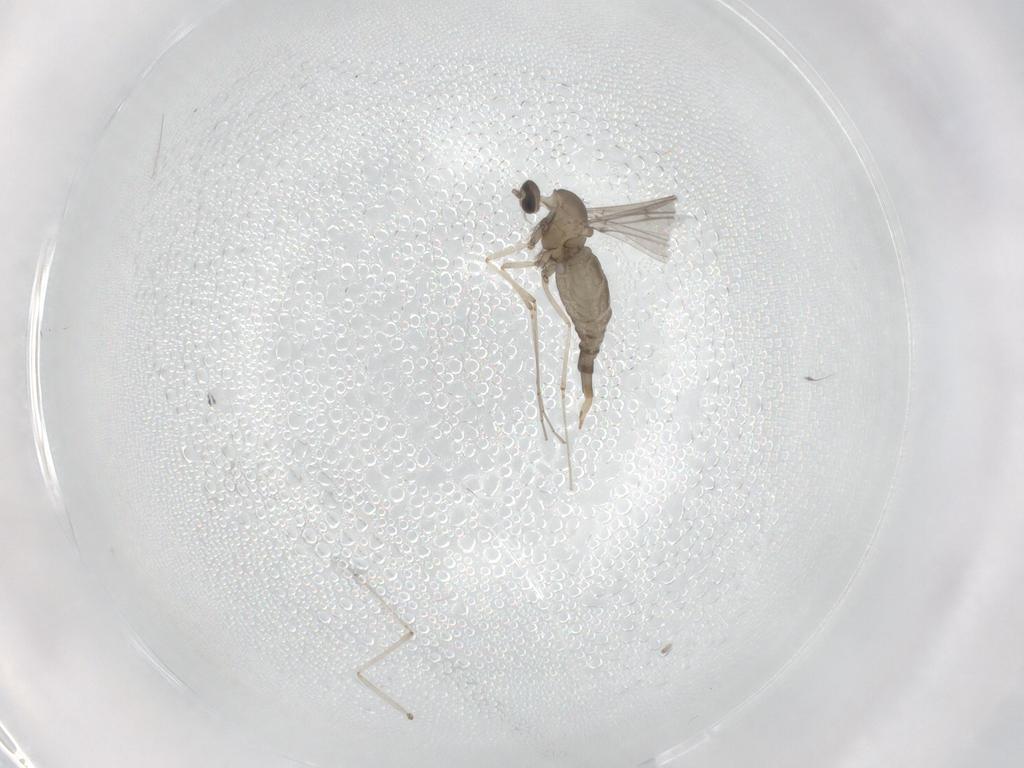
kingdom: Animalia
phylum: Arthropoda
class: Insecta
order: Diptera
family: Cecidomyiidae
